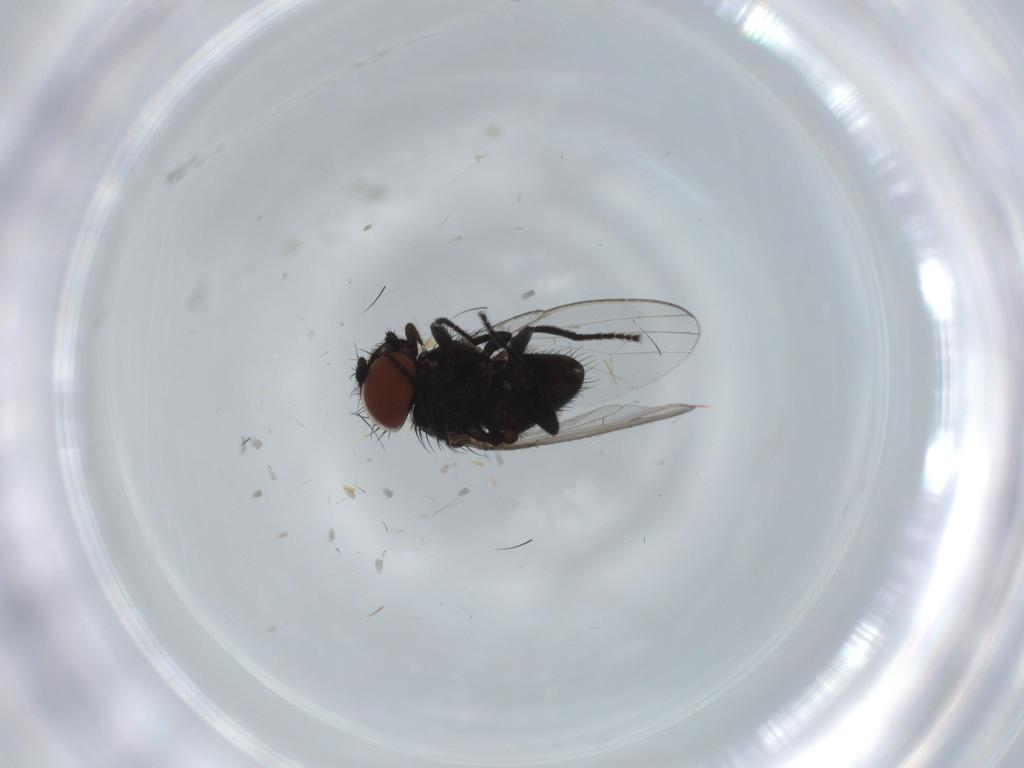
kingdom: Animalia
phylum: Arthropoda
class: Insecta
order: Diptera
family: Milichiidae
